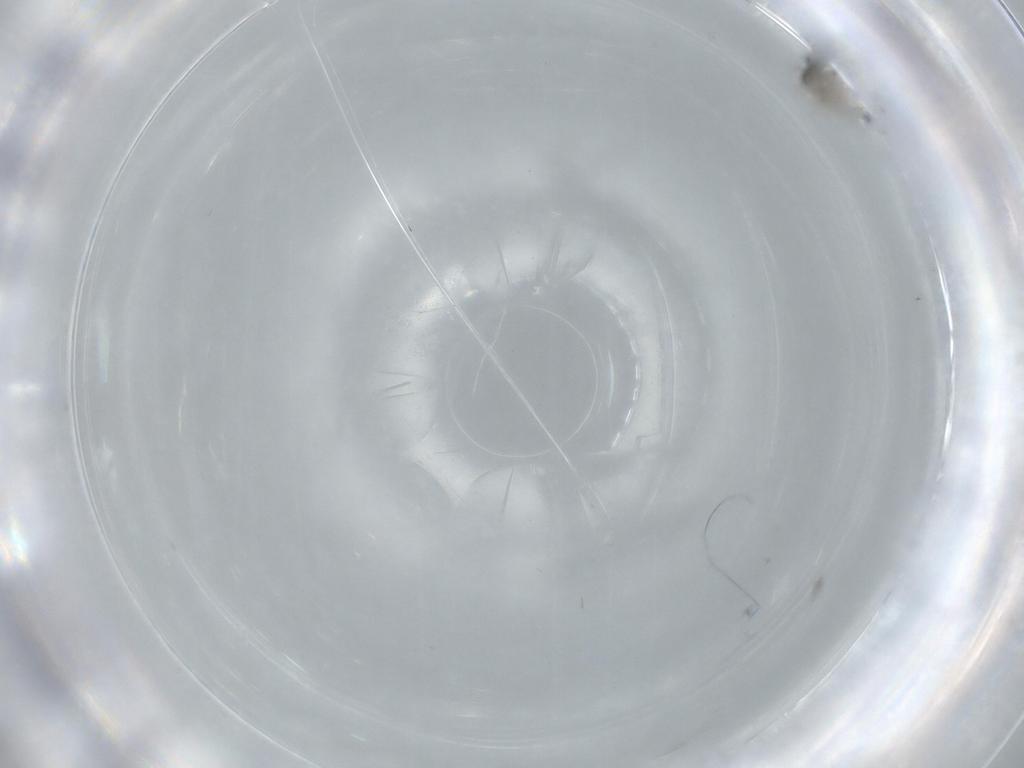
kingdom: Animalia
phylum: Arthropoda
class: Insecta
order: Diptera
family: Cecidomyiidae
